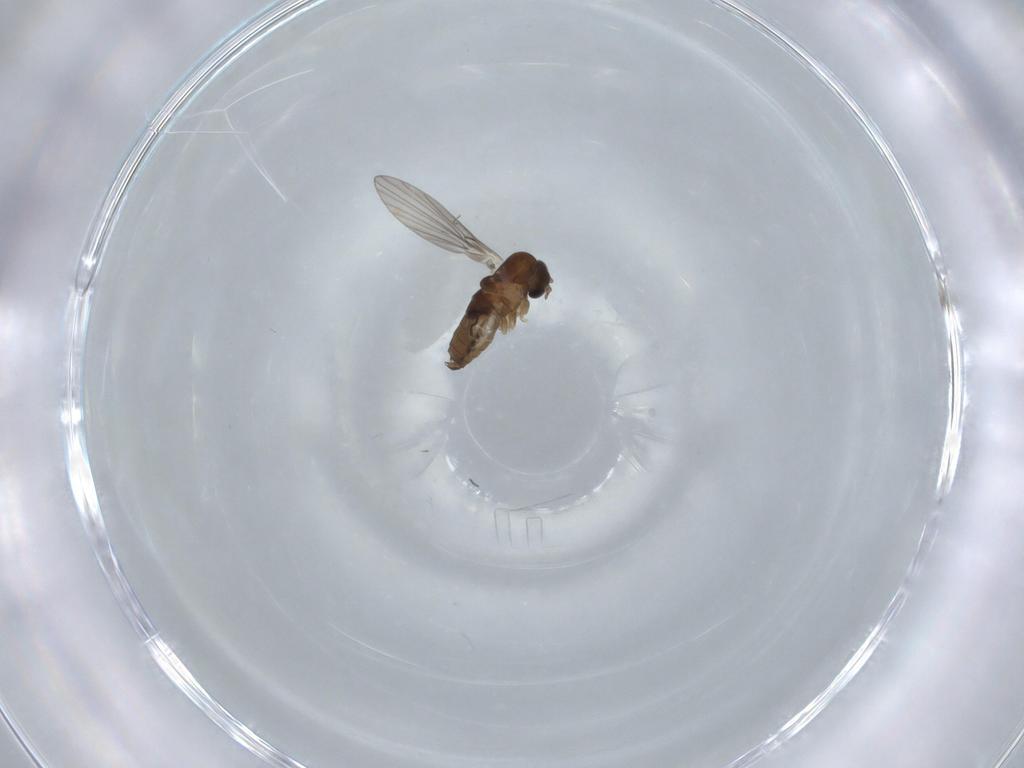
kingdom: Animalia
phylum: Arthropoda
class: Insecta
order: Diptera
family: Psychodidae
